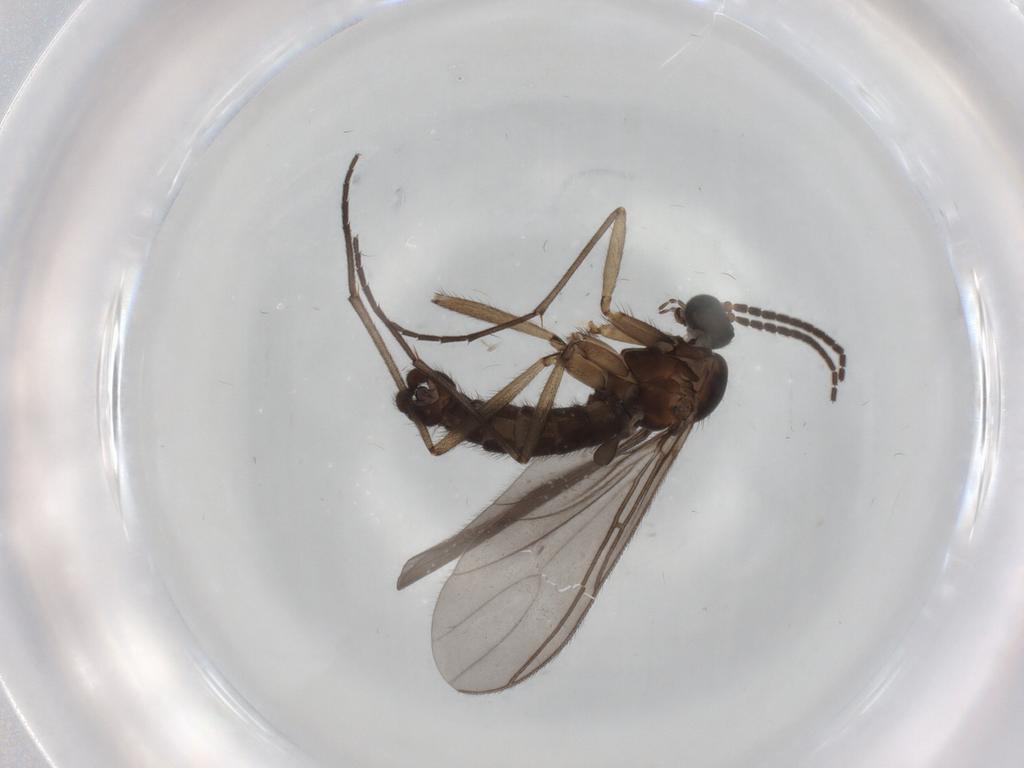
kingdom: Animalia
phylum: Arthropoda
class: Insecta
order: Diptera
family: Sciaridae
